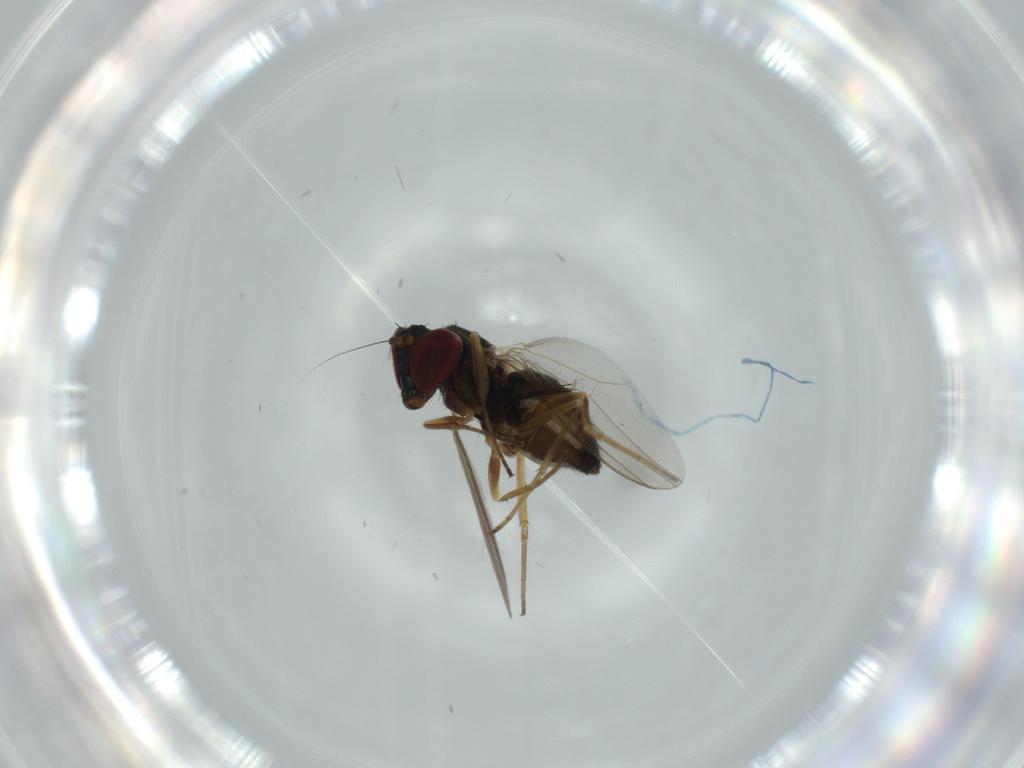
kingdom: Animalia
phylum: Arthropoda
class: Insecta
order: Diptera
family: Ditomyiidae
